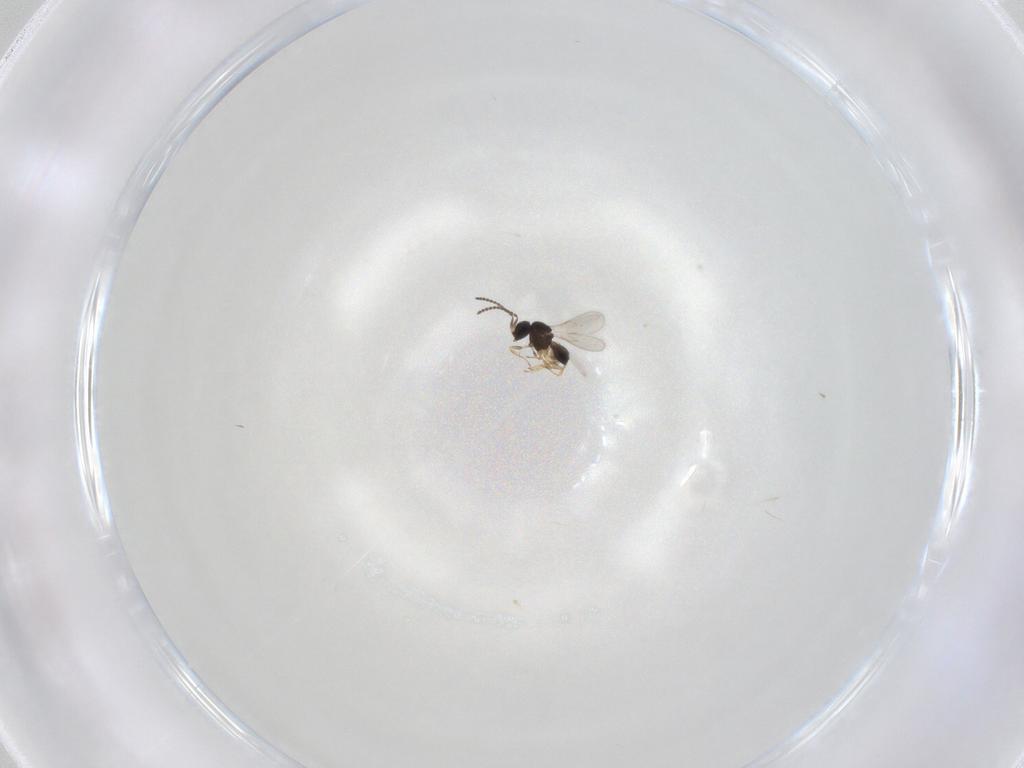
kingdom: Animalia
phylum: Arthropoda
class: Insecta
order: Hymenoptera
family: Scelionidae
